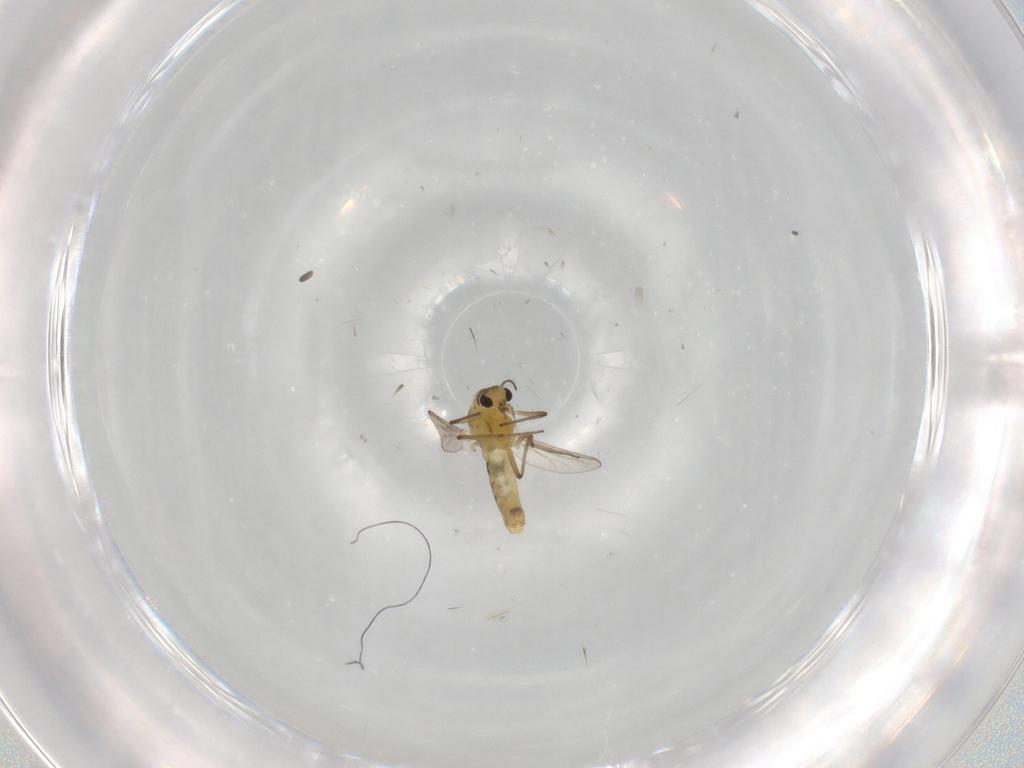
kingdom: Animalia
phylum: Arthropoda
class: Insecta
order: Diptera
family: Chironomidae
